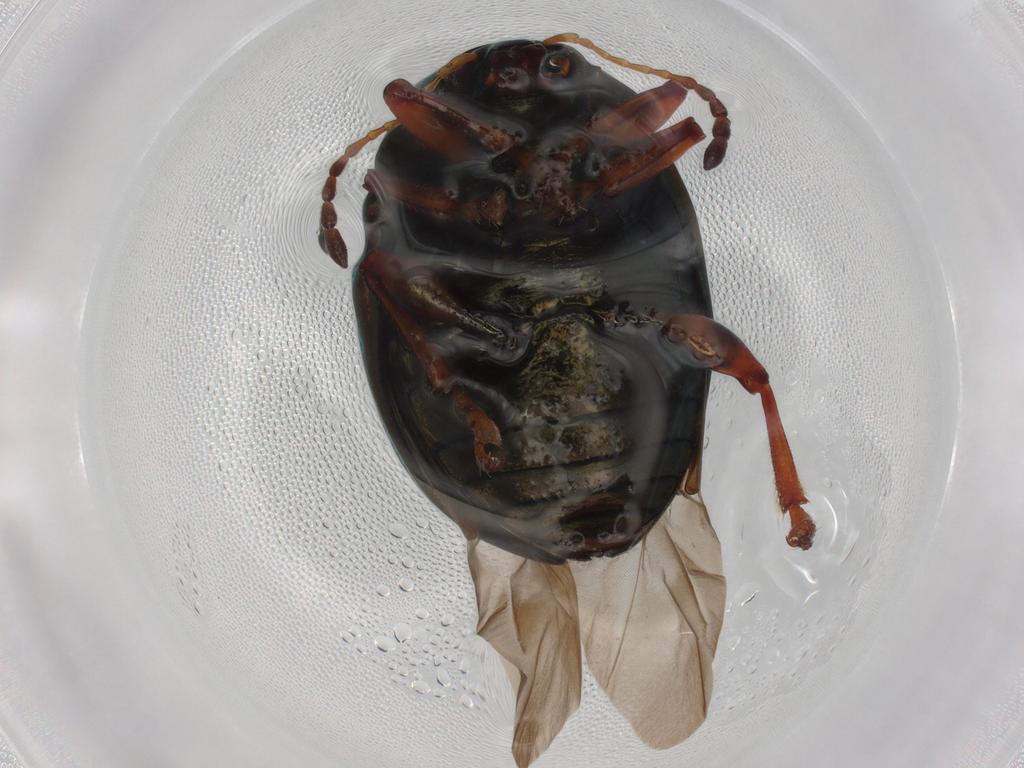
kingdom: Animalia
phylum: Arthropoda
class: Insecta
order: Coleoptera
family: Chrysomelidae
